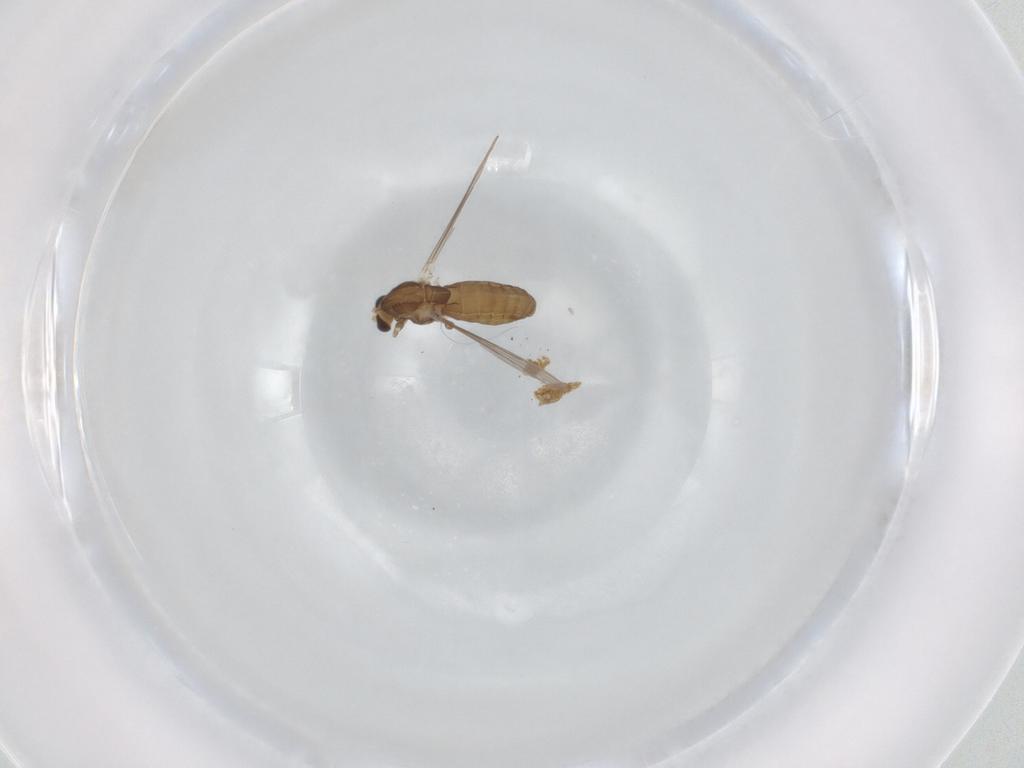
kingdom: Animalia
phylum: Arthropoda
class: Insecta
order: Diptera
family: Chironomidae
